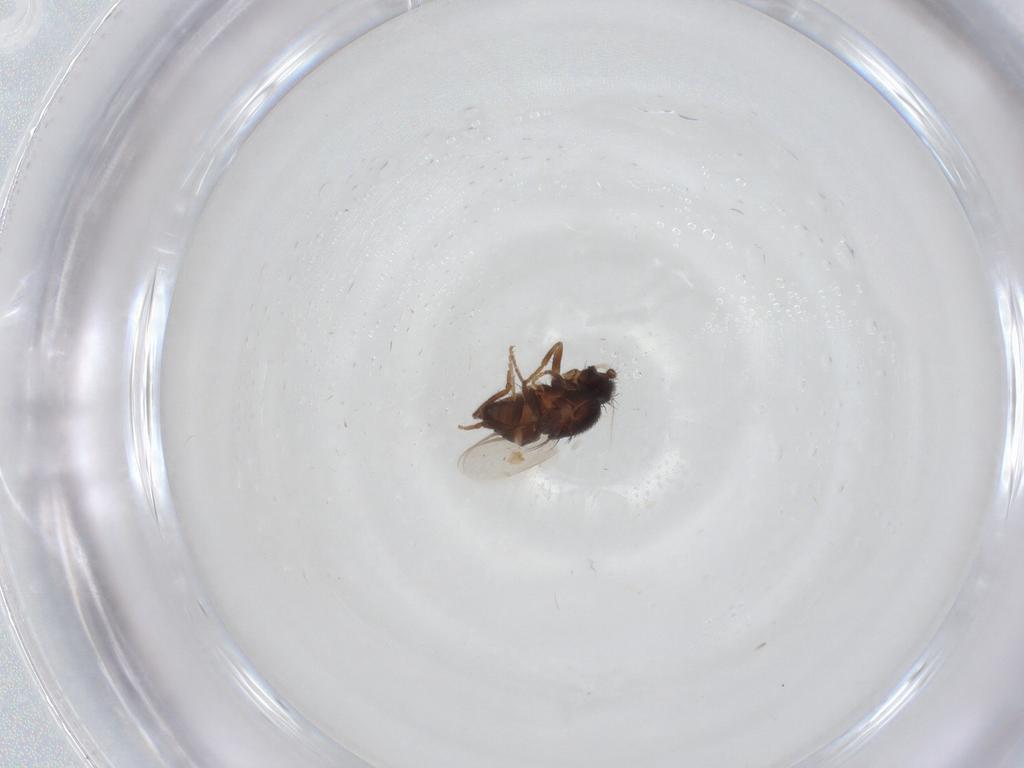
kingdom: Animalia
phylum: Arthropoda
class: Insecta
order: Diptera
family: Sphaeroceridae
